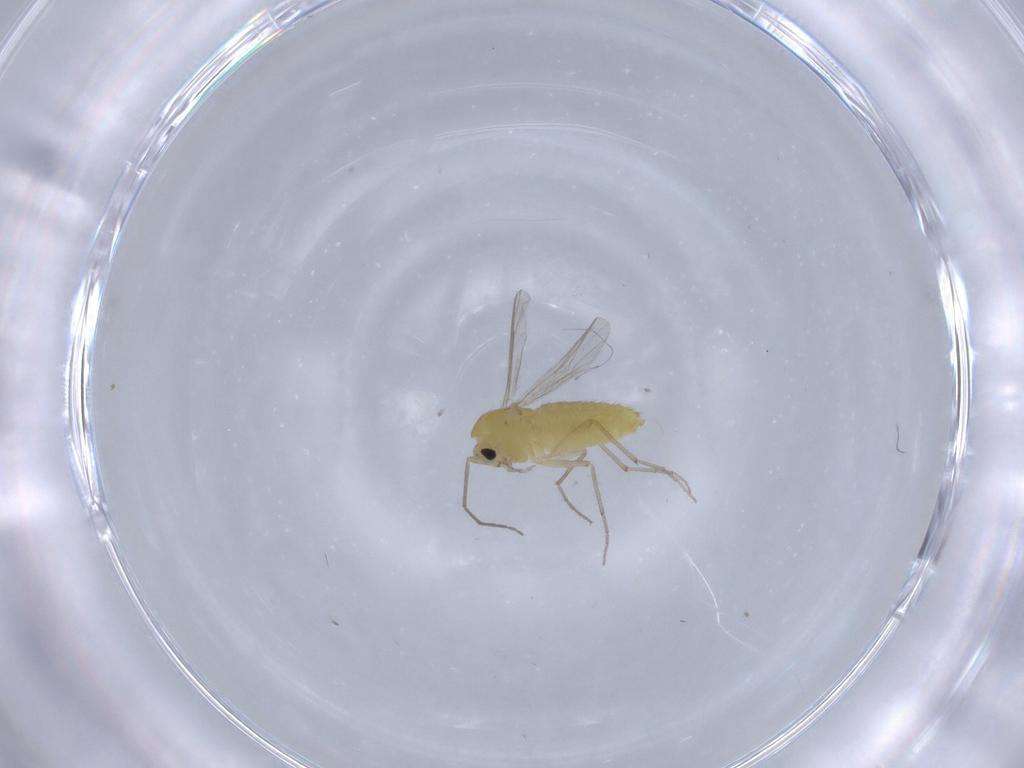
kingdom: Animalia
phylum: Arthropoda
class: Insecta
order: Diptera
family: Chironomidae
